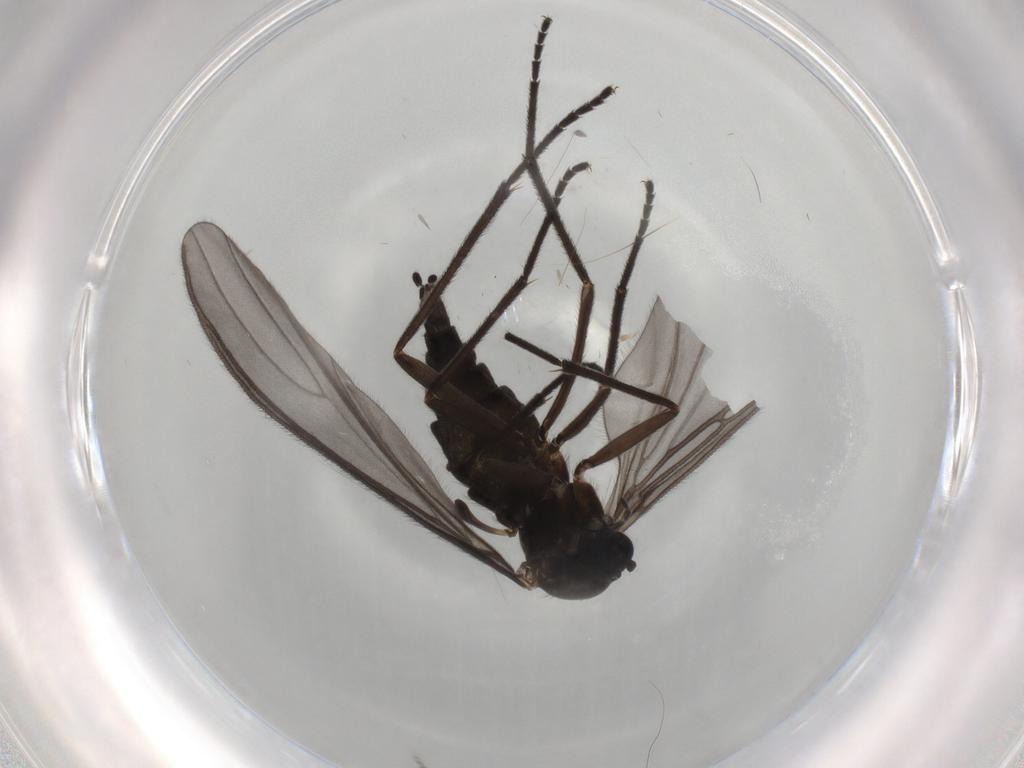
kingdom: Animalia
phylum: Arthropoda
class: Insecta
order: Diptera
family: Sciaridae
